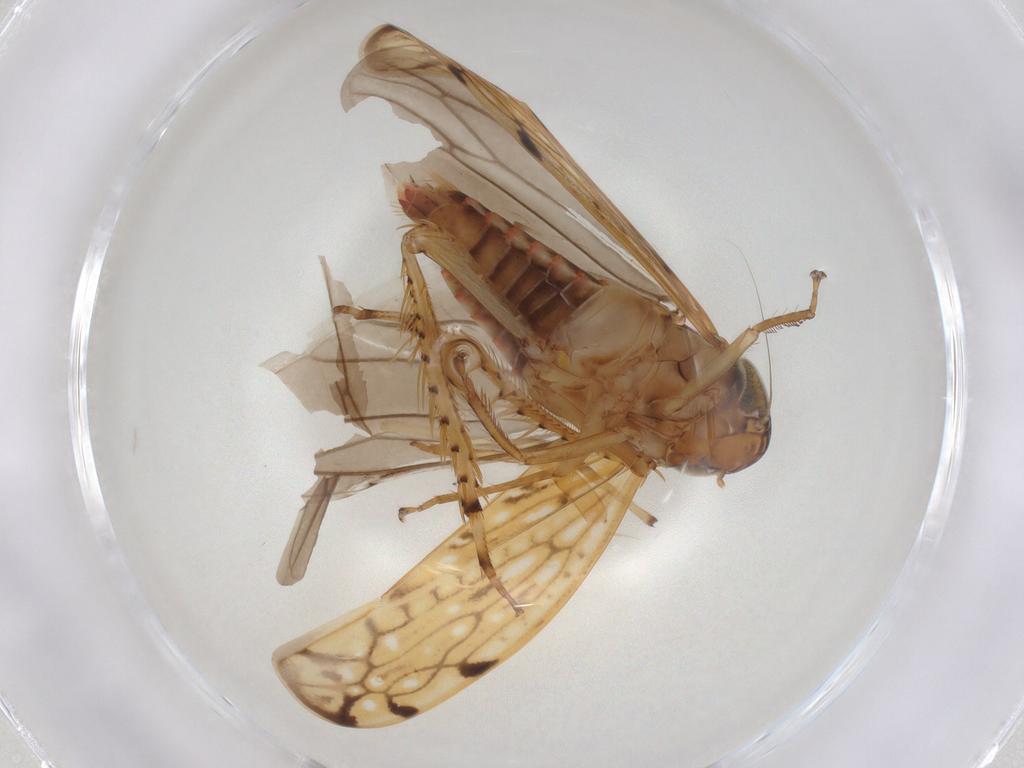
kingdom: Animalia
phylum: Arthropoda
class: Insecta
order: Hemiptera
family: Cicadellidae
